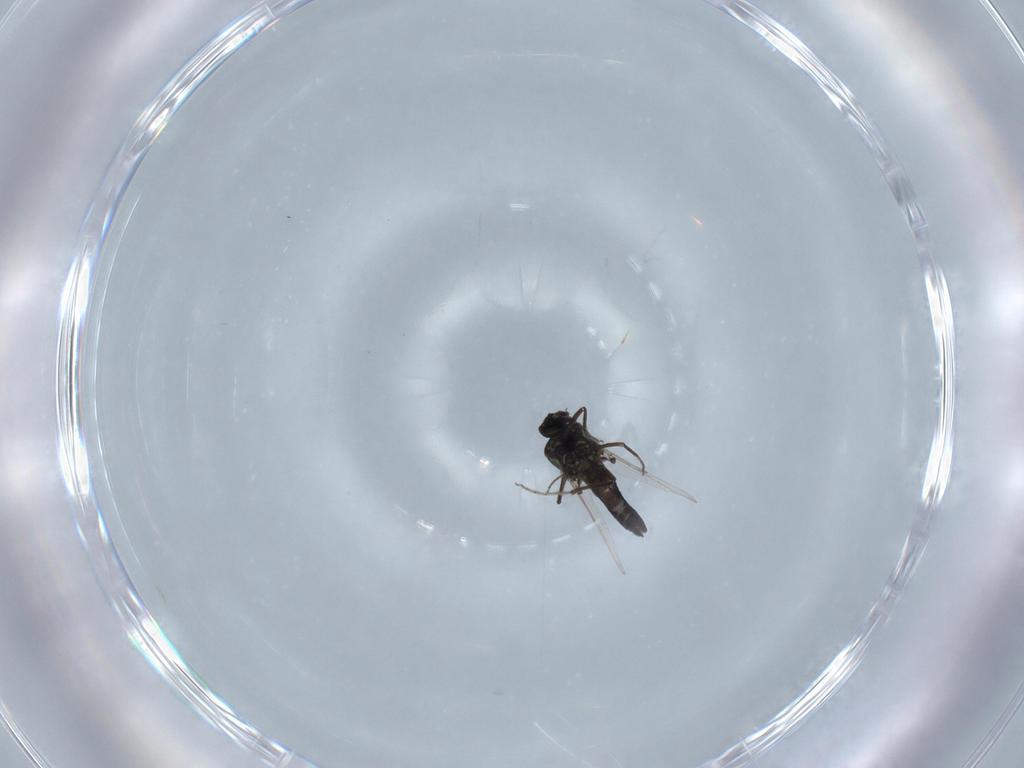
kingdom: Animalia
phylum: Arthropoda
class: Insecta
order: Diptera
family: Ceratopogonidae
